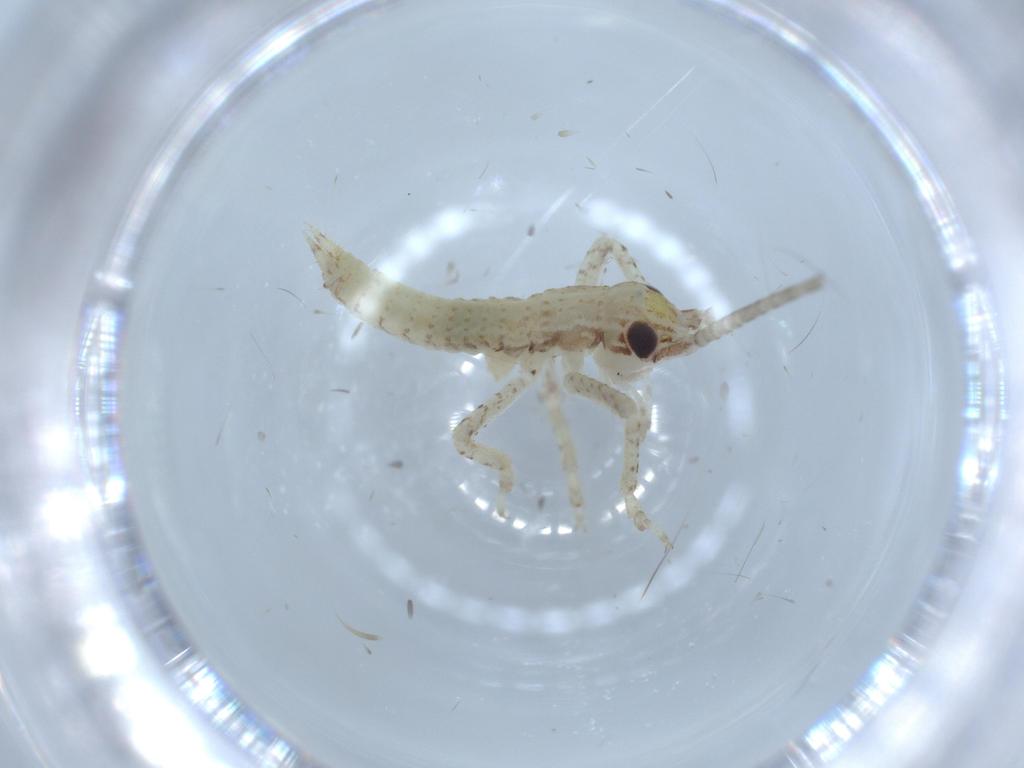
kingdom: Animalia
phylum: Arthropoda
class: Insecta
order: Orthoptera
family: Gryllidae
